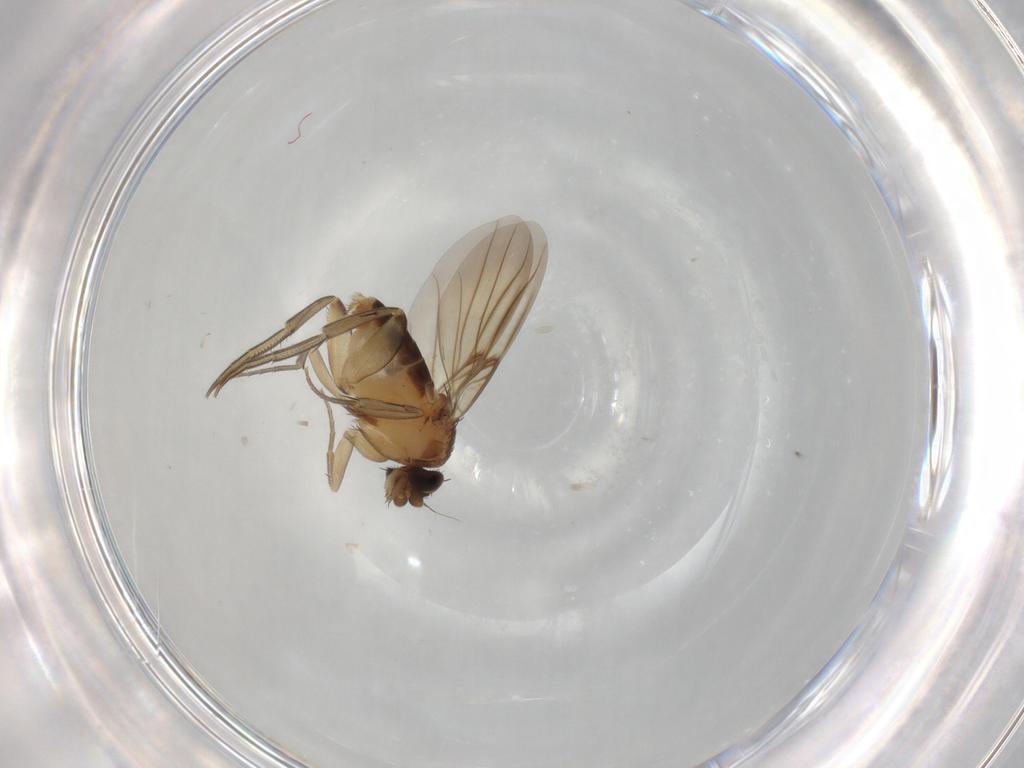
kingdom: Animalia
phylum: Arthropoda
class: Insecta
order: Diptera
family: Phoridae
